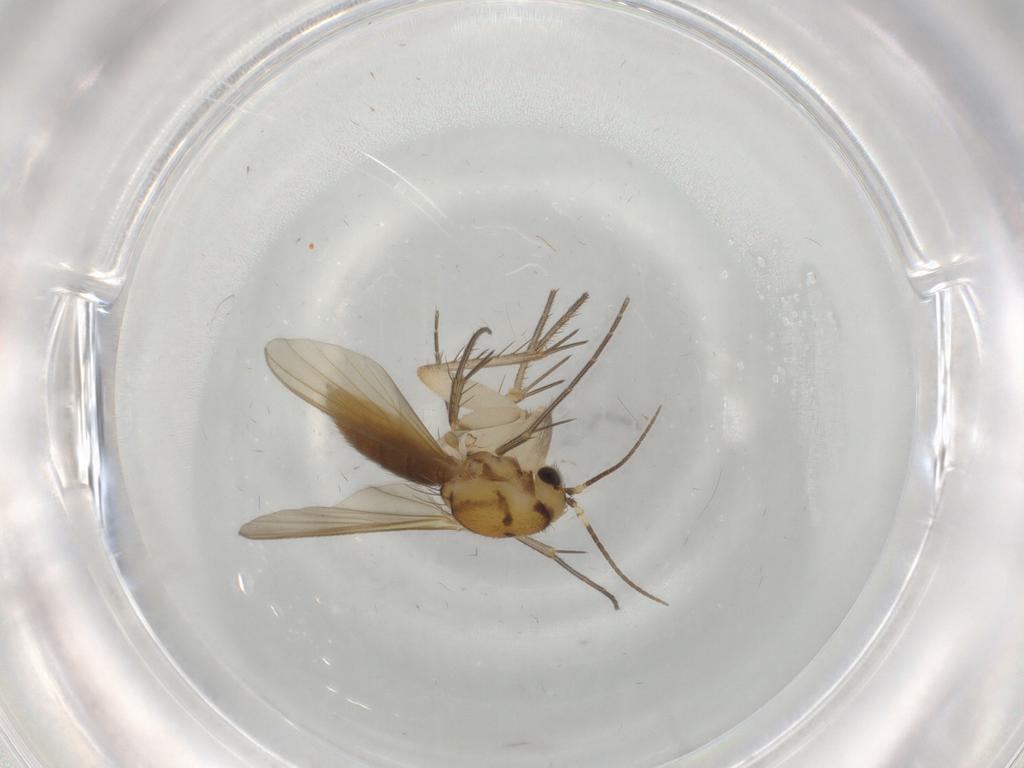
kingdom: Animalia
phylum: Arthropoda
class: Insecta
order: Diptera
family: Mycetophilidae
